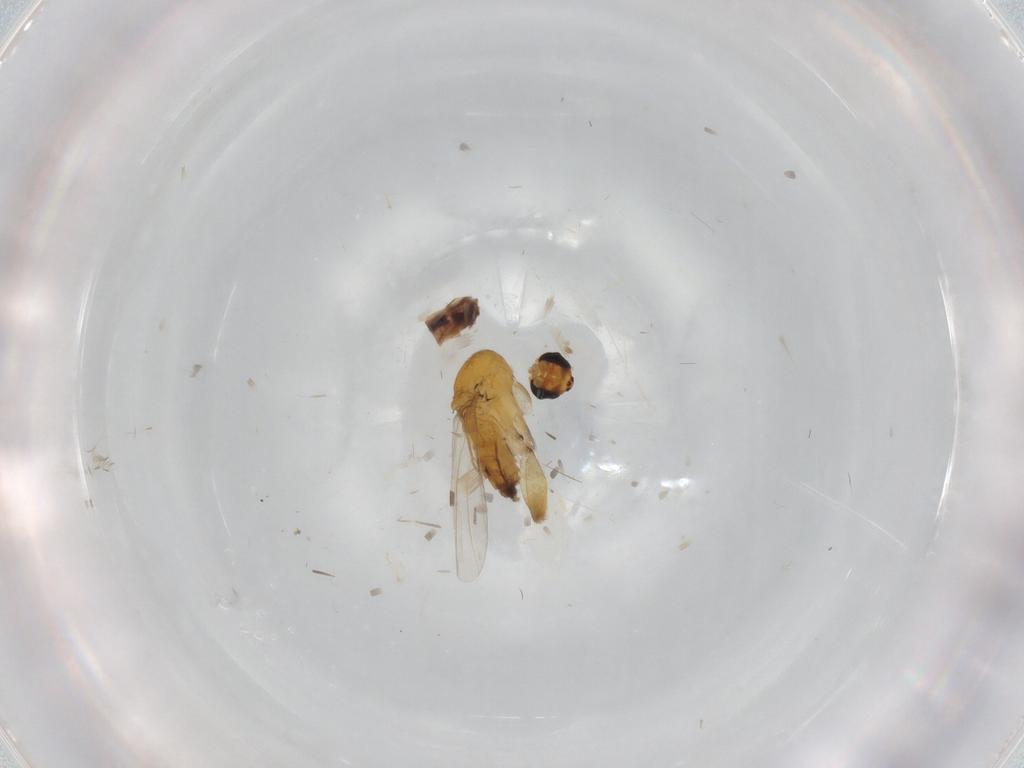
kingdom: Animalia
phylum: Arthropoda
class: Insecta
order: Diptera
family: Phoridae
